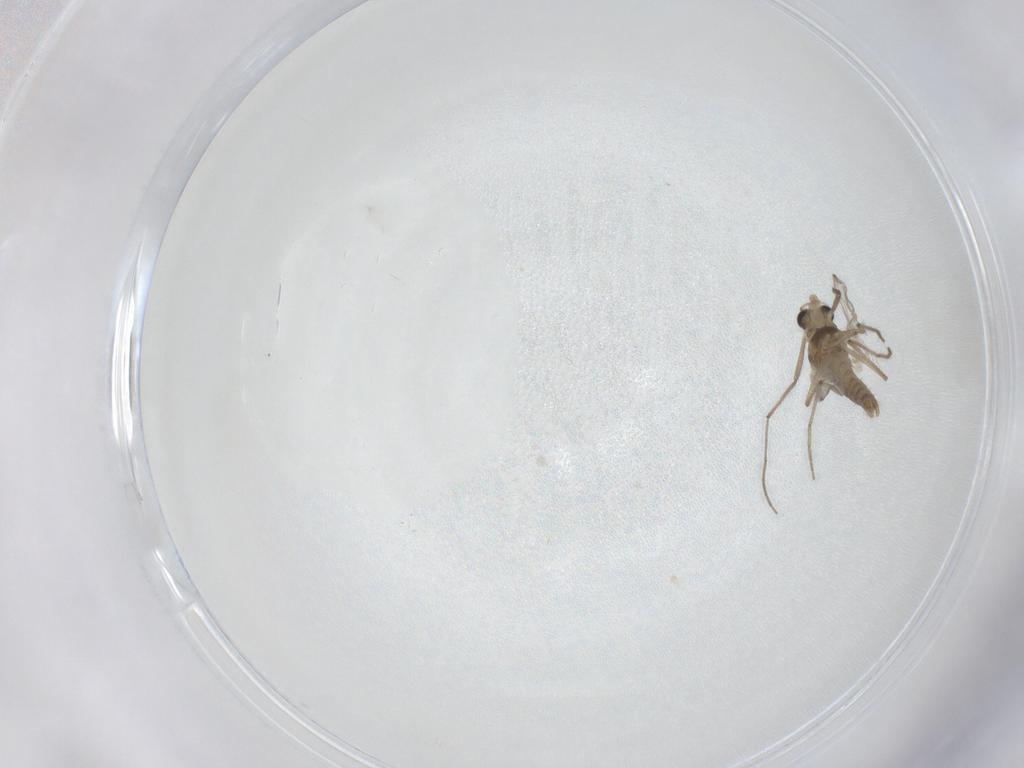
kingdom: Animalia
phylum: Arthropoda
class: Insecta
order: Diptera
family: Chironomidae
